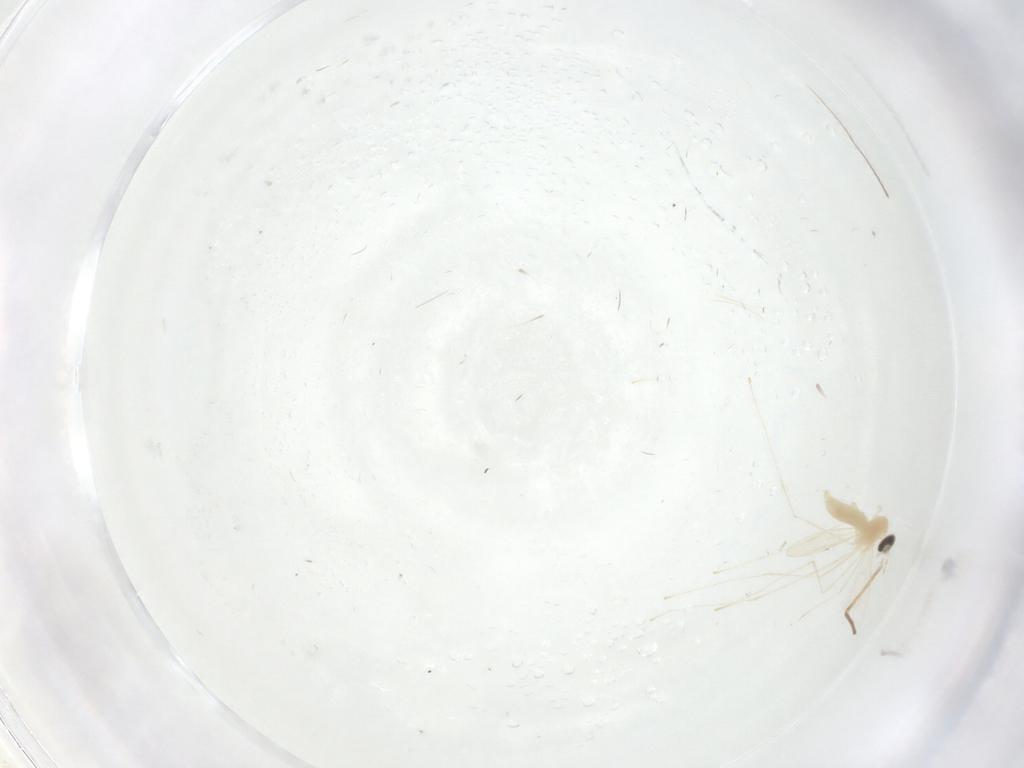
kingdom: Animalia
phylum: Arthropoda
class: Insecta
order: Diptera
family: Cecidomyiidae
